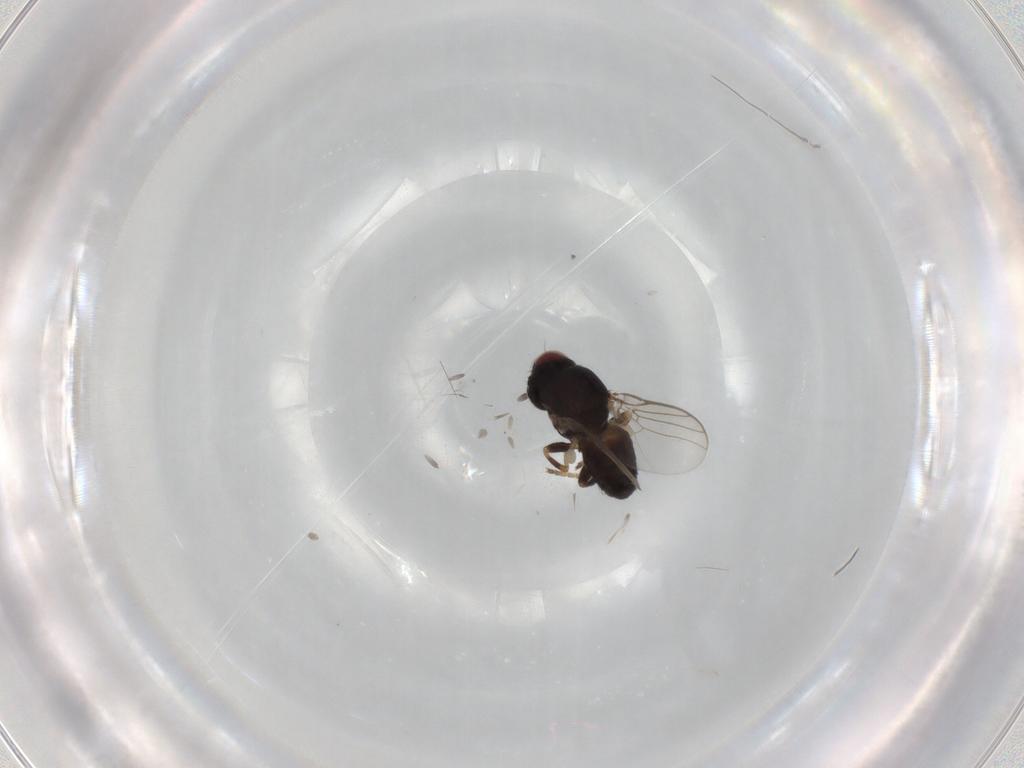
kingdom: Animalia
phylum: Arthropoda
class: Insecta
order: Diptera
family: Chloropidae
